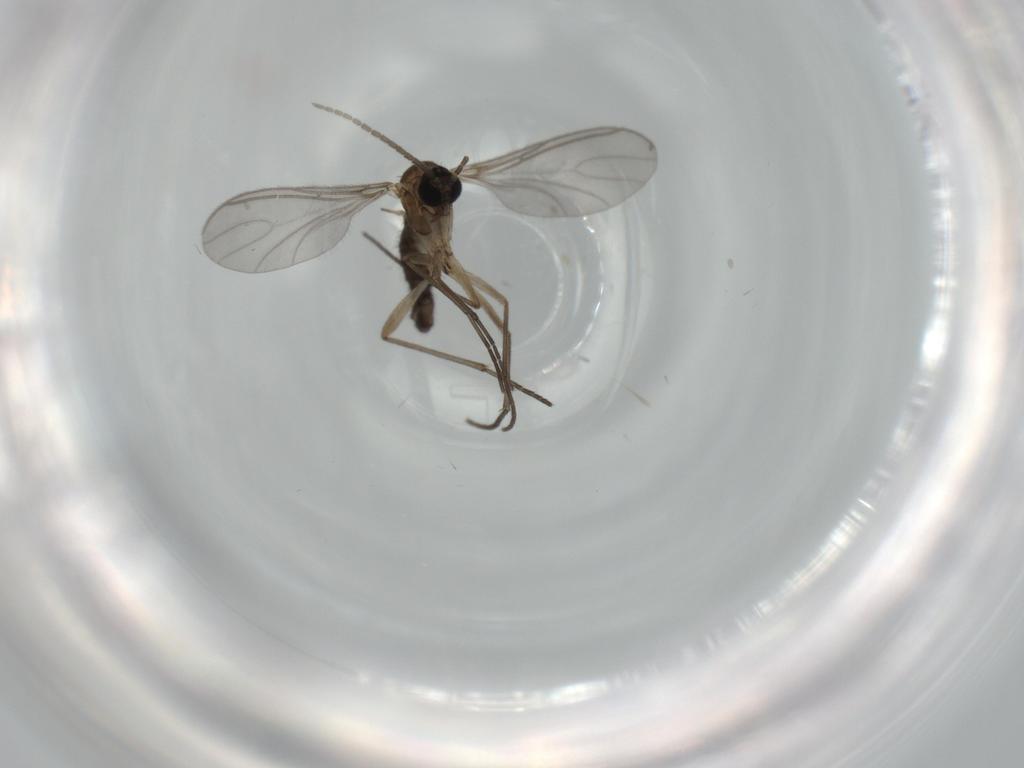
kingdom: Animalia
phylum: Arthropoda
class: Insecta
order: Diptera
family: Sciaridae
